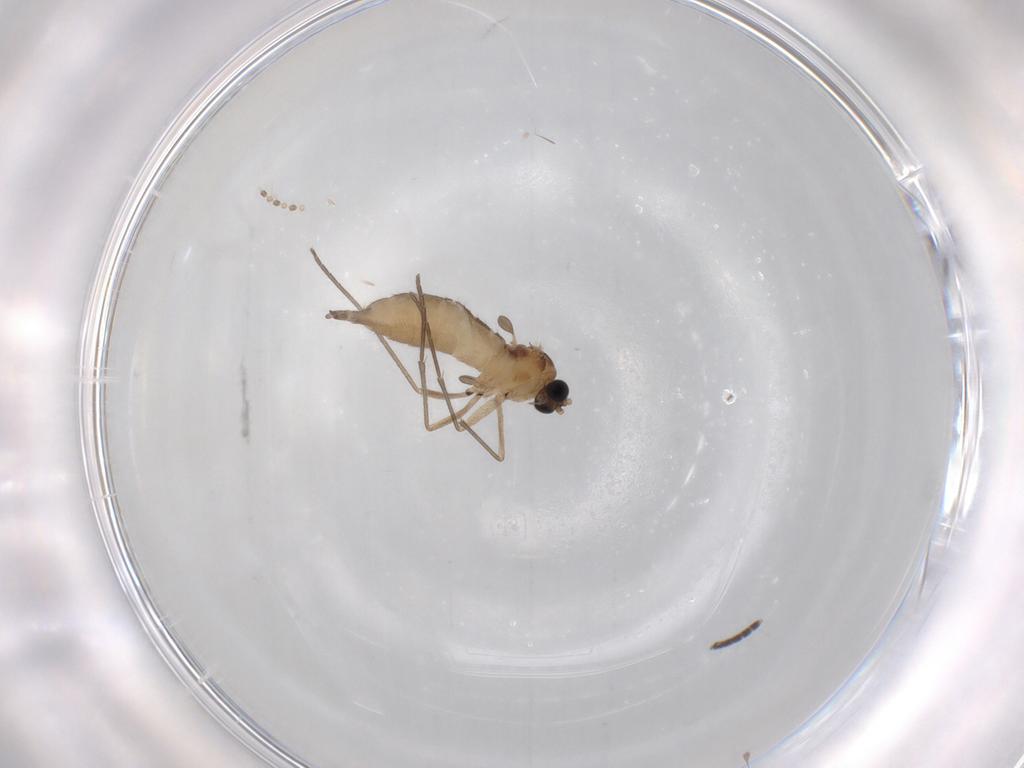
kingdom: Animalia
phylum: Arthropoda
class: Insecta
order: Diptera
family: Sciaridae
